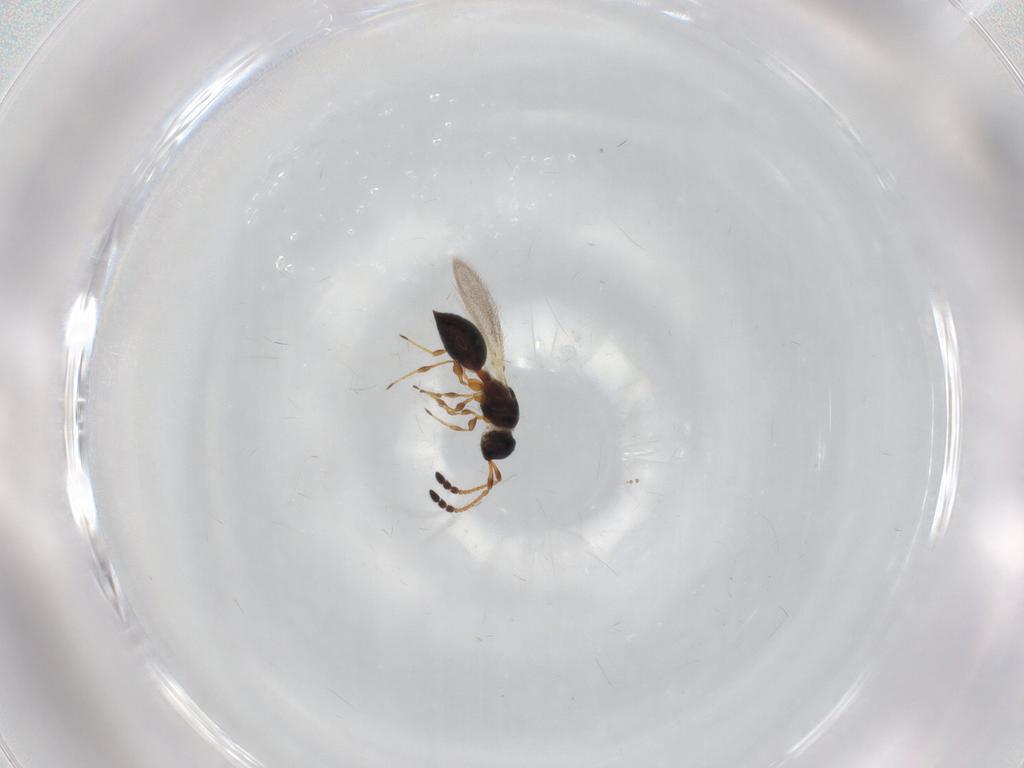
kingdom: Animalia
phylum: Arthropoda
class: Insecta
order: Hymenoptera
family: Diapriidae
